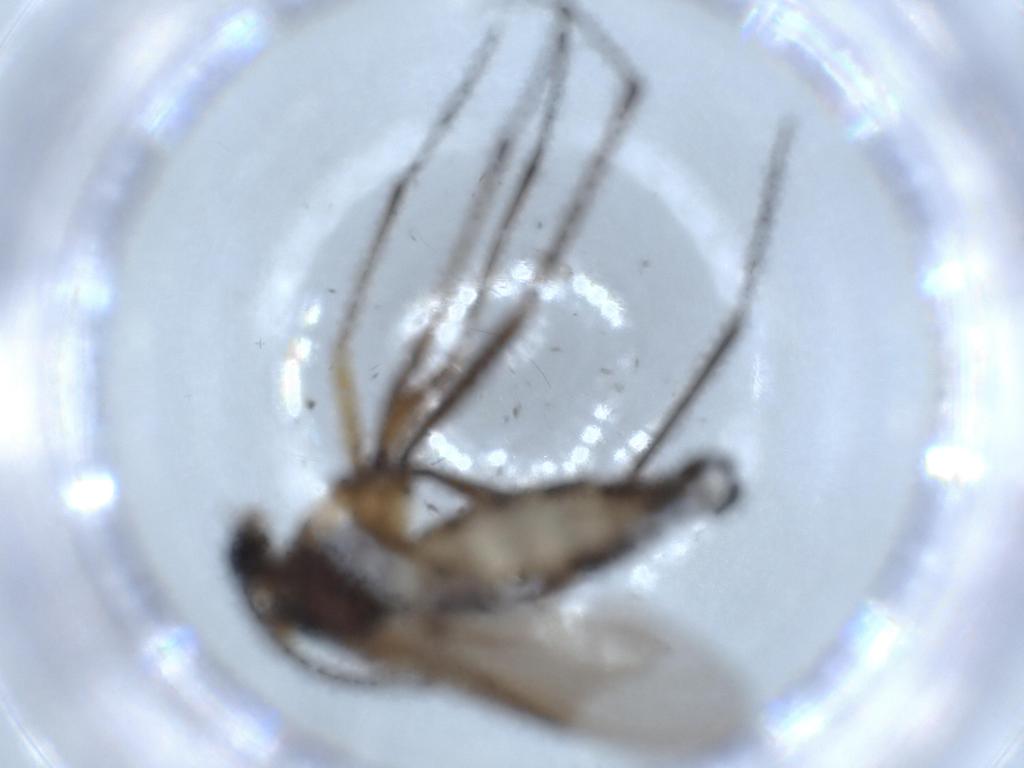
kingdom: Animalia
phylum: Arthropoda
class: Insecta
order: Diptera
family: Sciaridae
